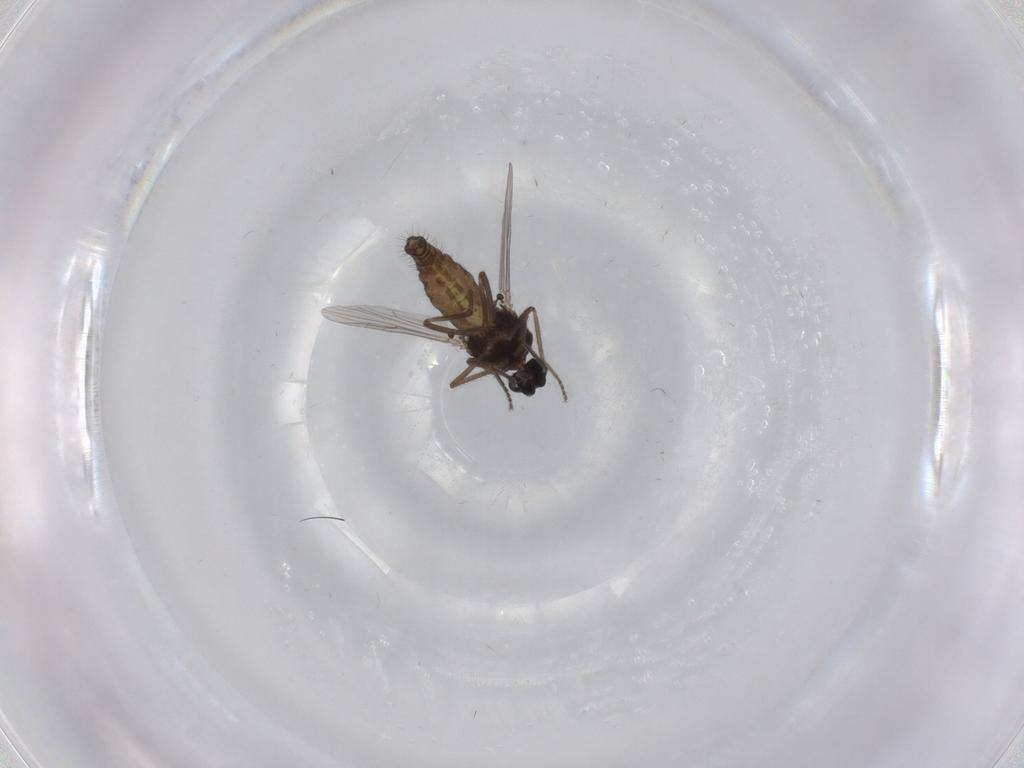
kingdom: Animalia
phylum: Arthropoda
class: Insecta
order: Diptera
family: Ceratopogonidae
